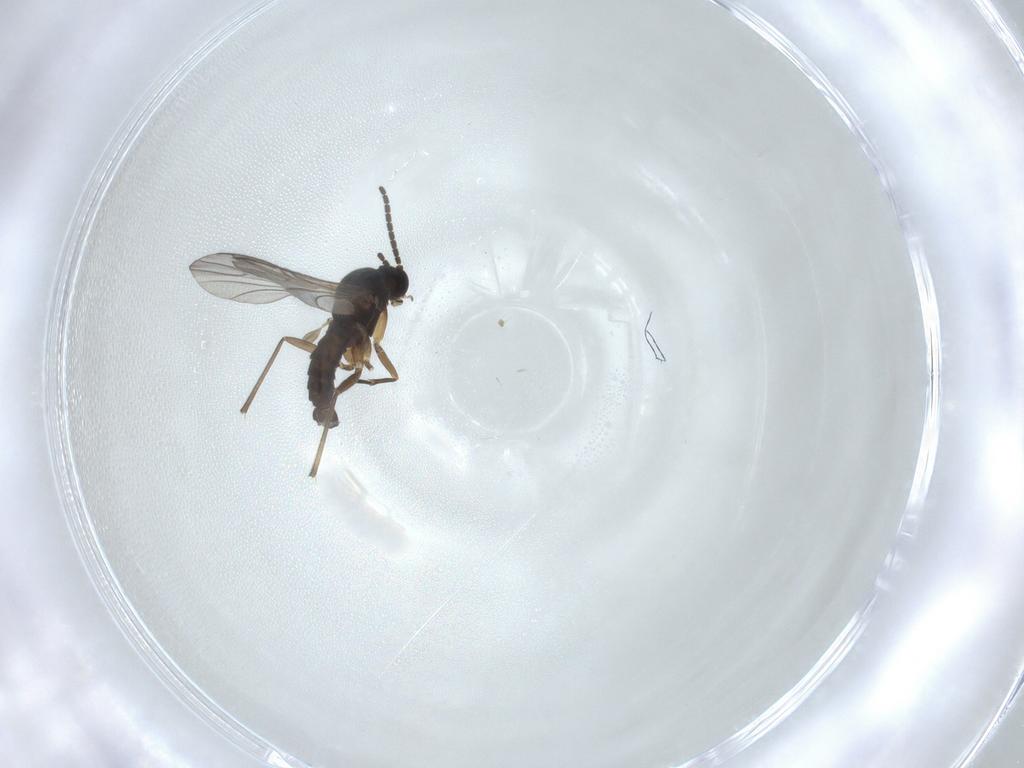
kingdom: Animalia
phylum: Arthropoda
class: Insecta
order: Diptera
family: Sciaridae
